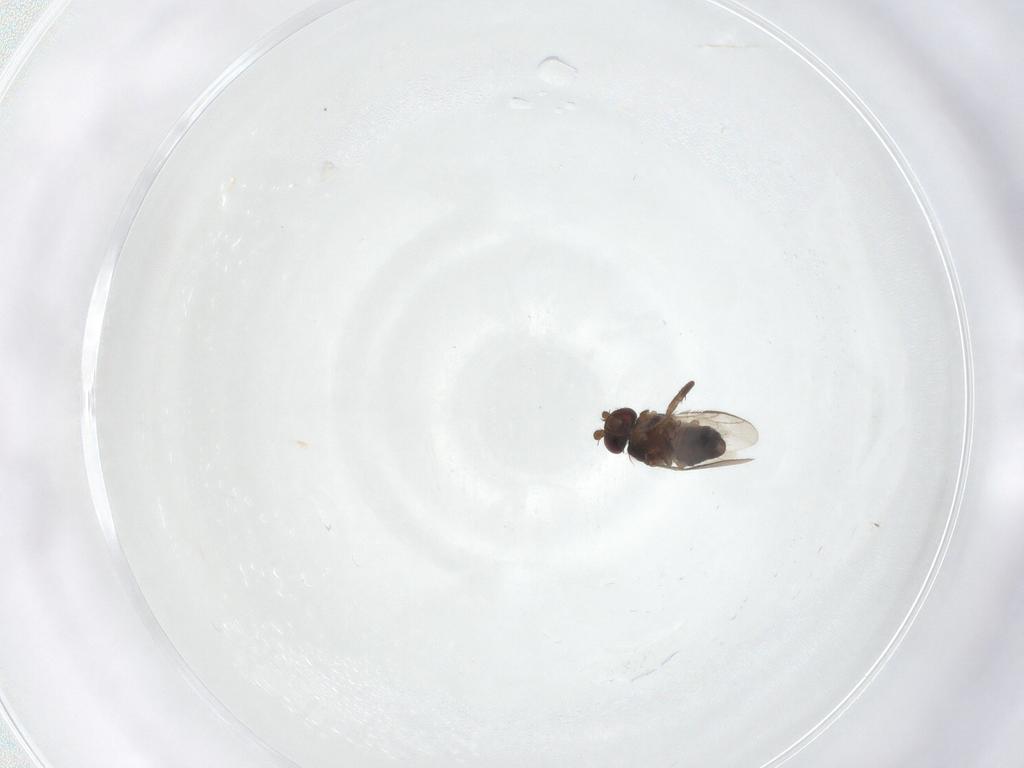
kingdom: Animalia
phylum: Arthropoda
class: Insecta
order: Diptera
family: Sphaeroceridae
